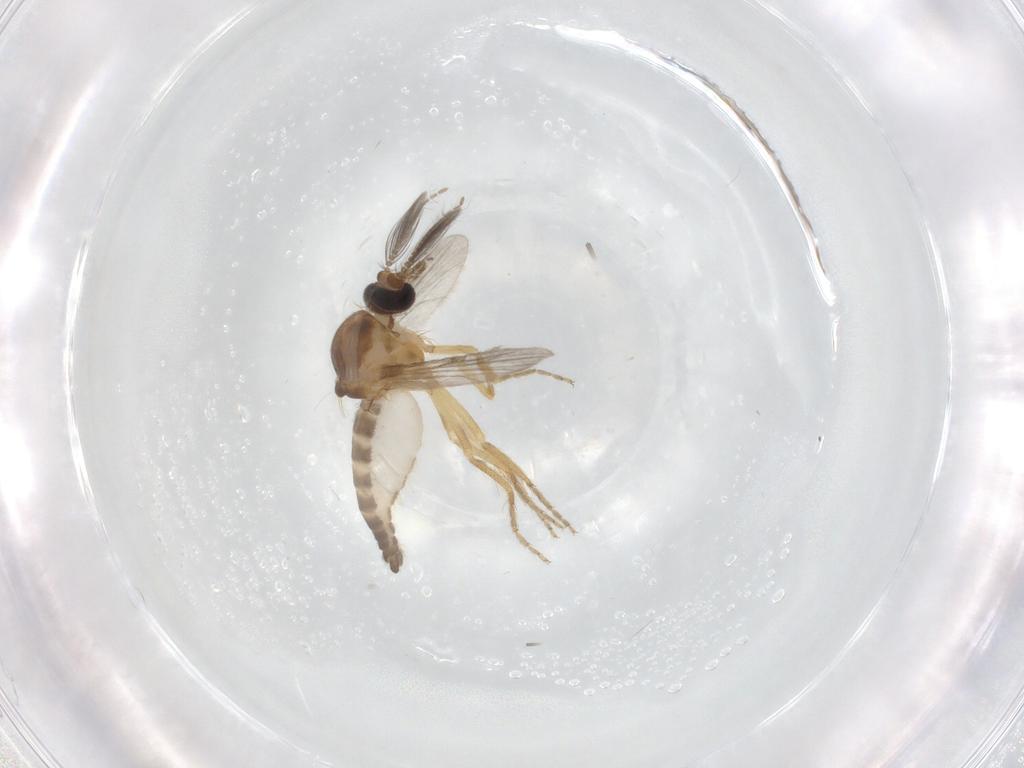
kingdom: Animalia
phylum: Arthropoda
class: Insecta
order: Diptera
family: Ceratopogonidae
